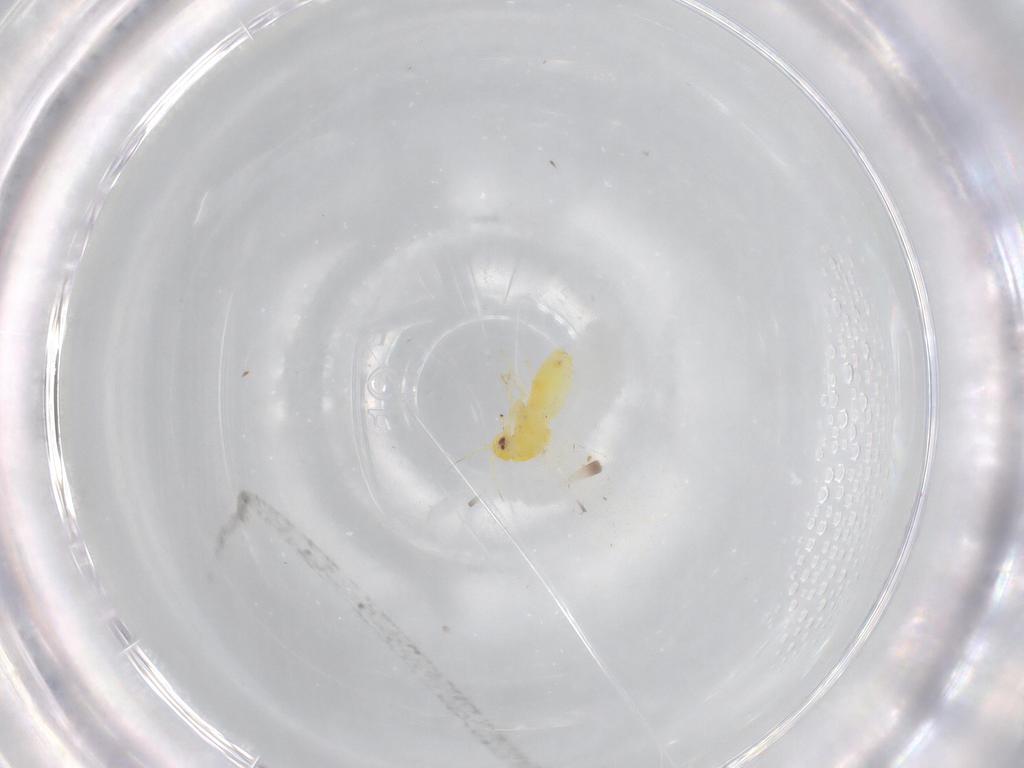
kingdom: Animalia
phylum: Arthropoda
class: Insecta
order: Hemiptera
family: Aleyrodidae
